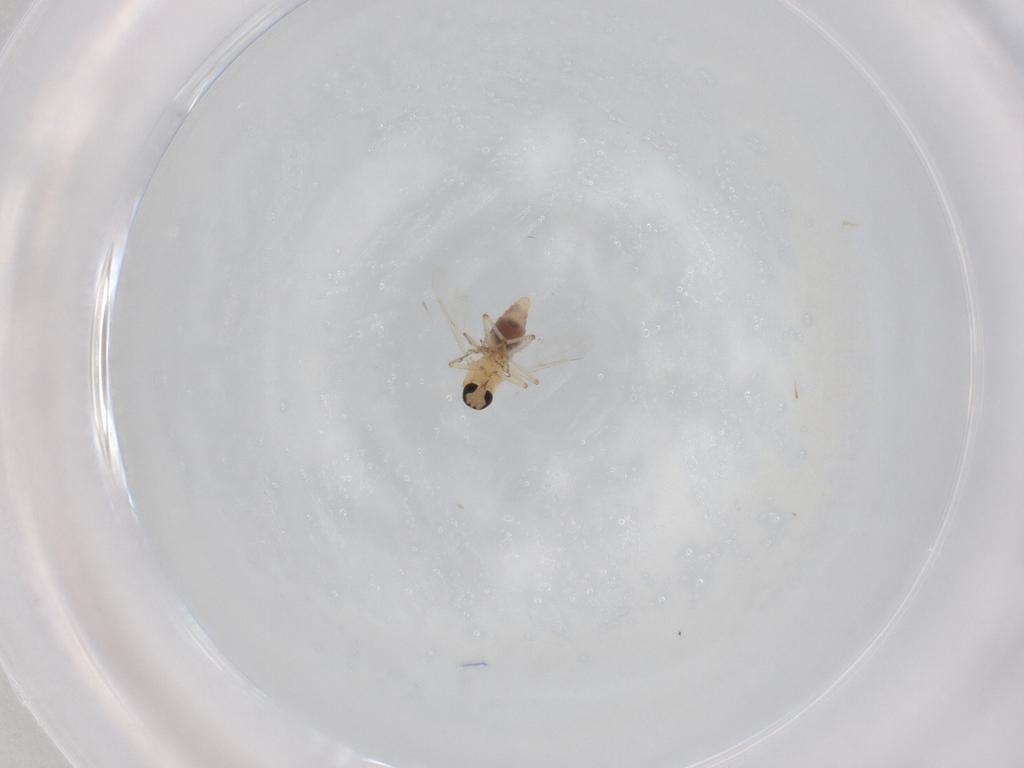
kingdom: Animalia
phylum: Arthropoda
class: Insecta
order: Diptera
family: Ceratopogonidae
